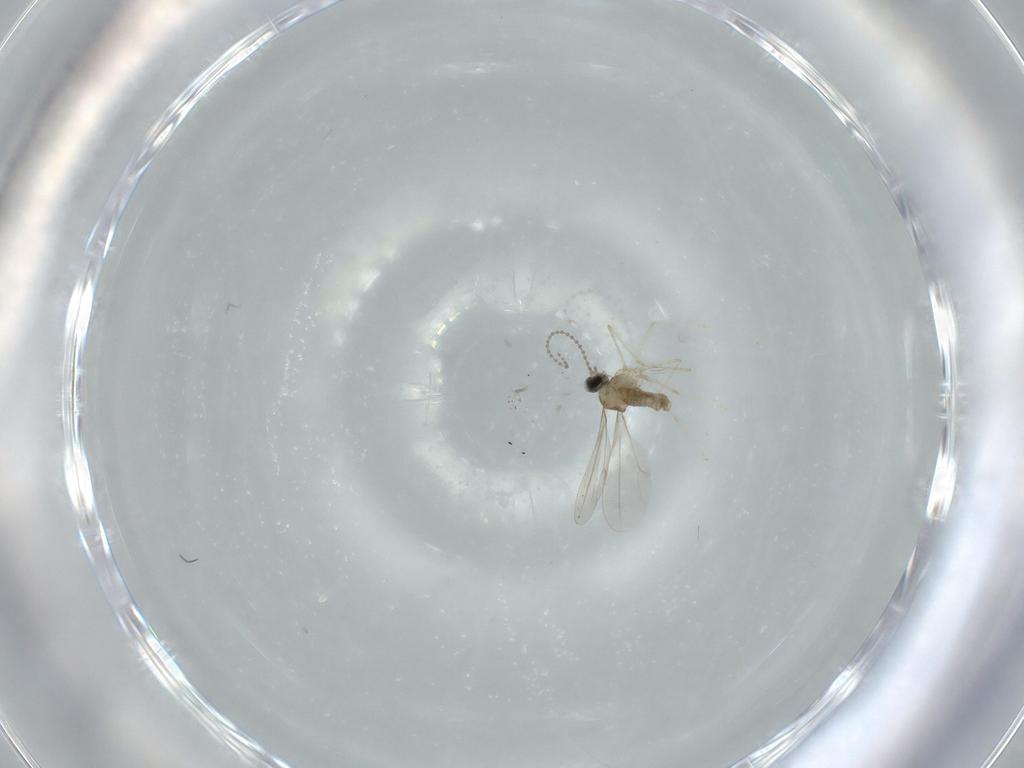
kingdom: Animalia
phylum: Arthropoda
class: Insecta
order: Diptera
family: Cecidomyiidae
